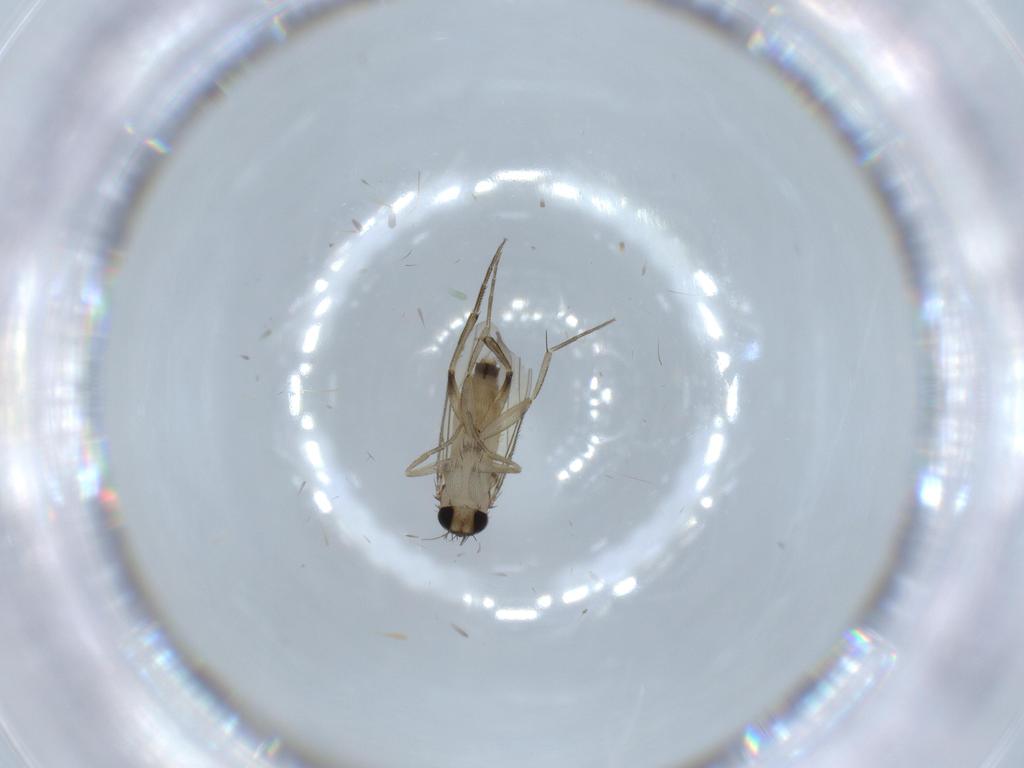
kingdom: Animalia
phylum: Arthropoda
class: Insecta
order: Diptera
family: Phoridae
